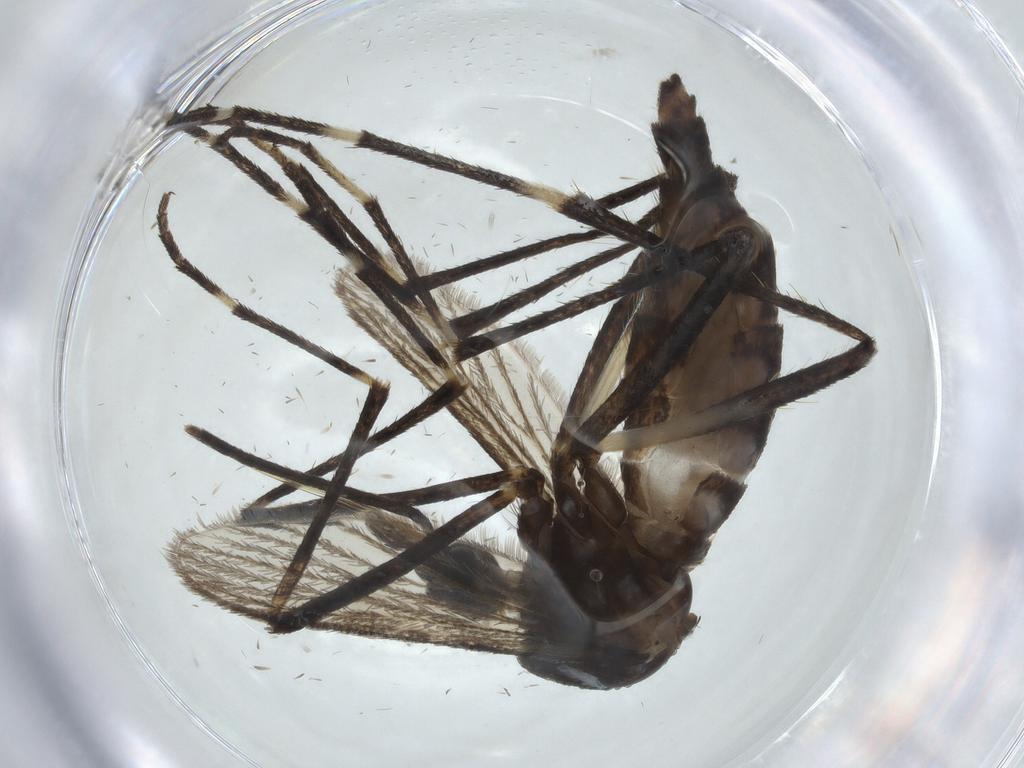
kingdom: Animalia
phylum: Arthropoda
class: Insecta
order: Diptera
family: Culicidae
